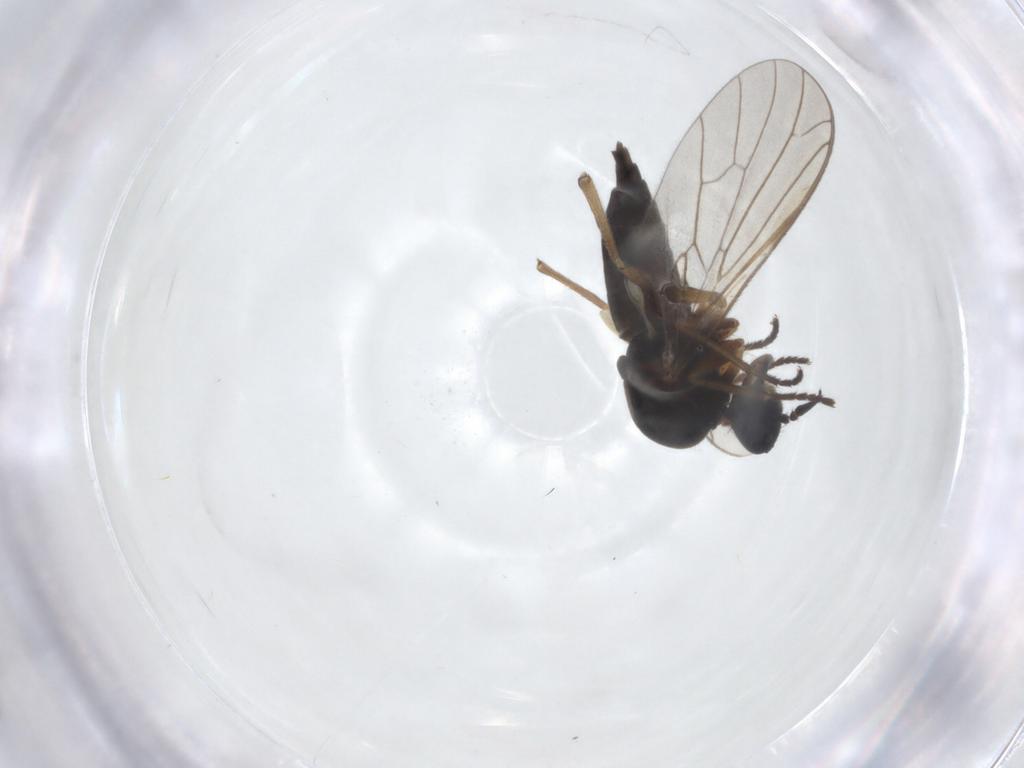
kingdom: Animalia
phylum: Arthropoda
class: Insecta
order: Diptera
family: Empididae
